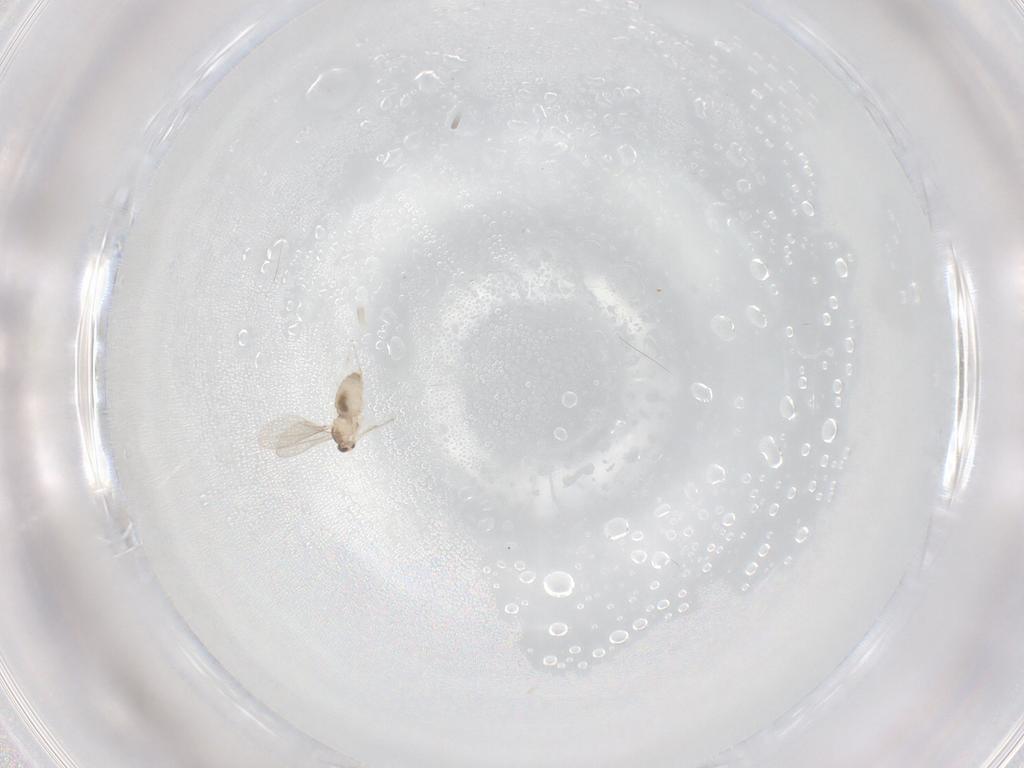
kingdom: Animalia
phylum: Arthropoda
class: Insecta
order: Diptera
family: Cecidomyiidae
